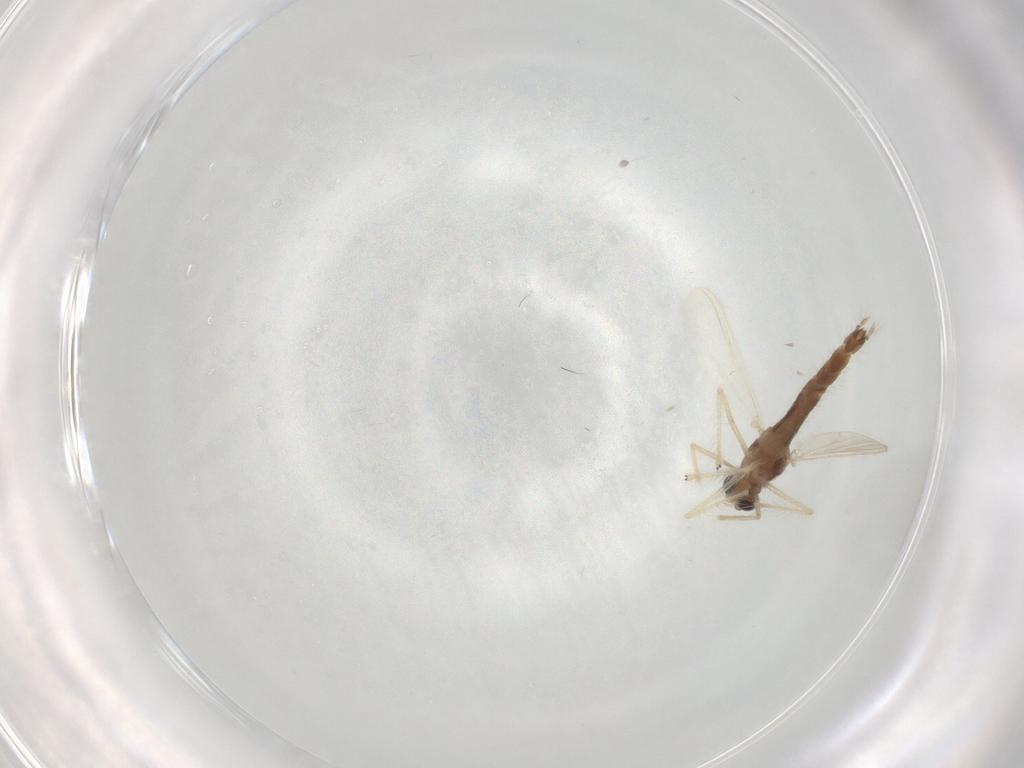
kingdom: Animalia
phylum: Arthropoda
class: Insecta
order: Diptera
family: Chironomidae
